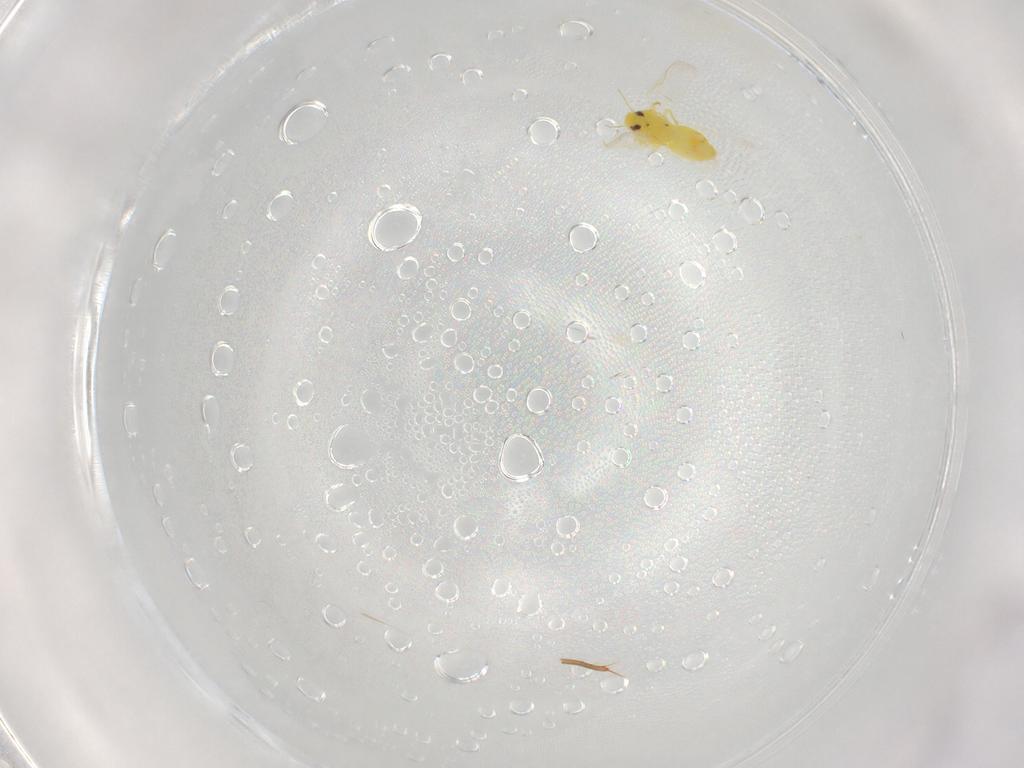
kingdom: Animalia
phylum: Arthropoda
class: Insecta
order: Hemiptera
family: Aleyrodidae
